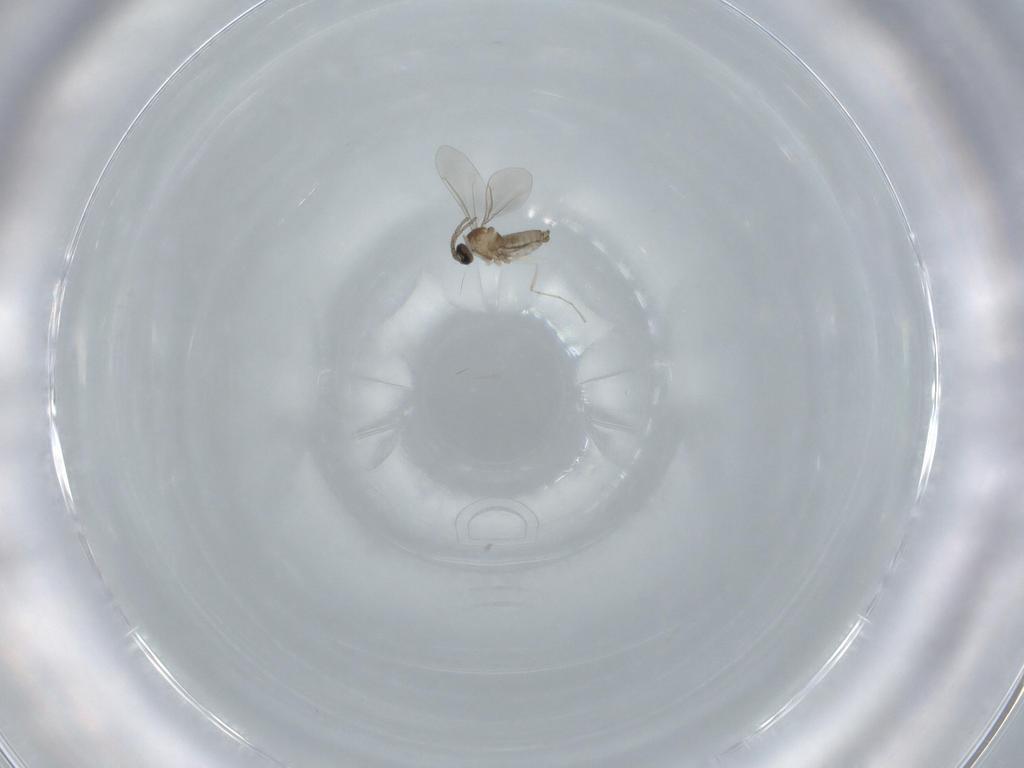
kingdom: Animalia
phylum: Arthropoda
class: Insecta
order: Diptera
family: Cecidomyiidae
